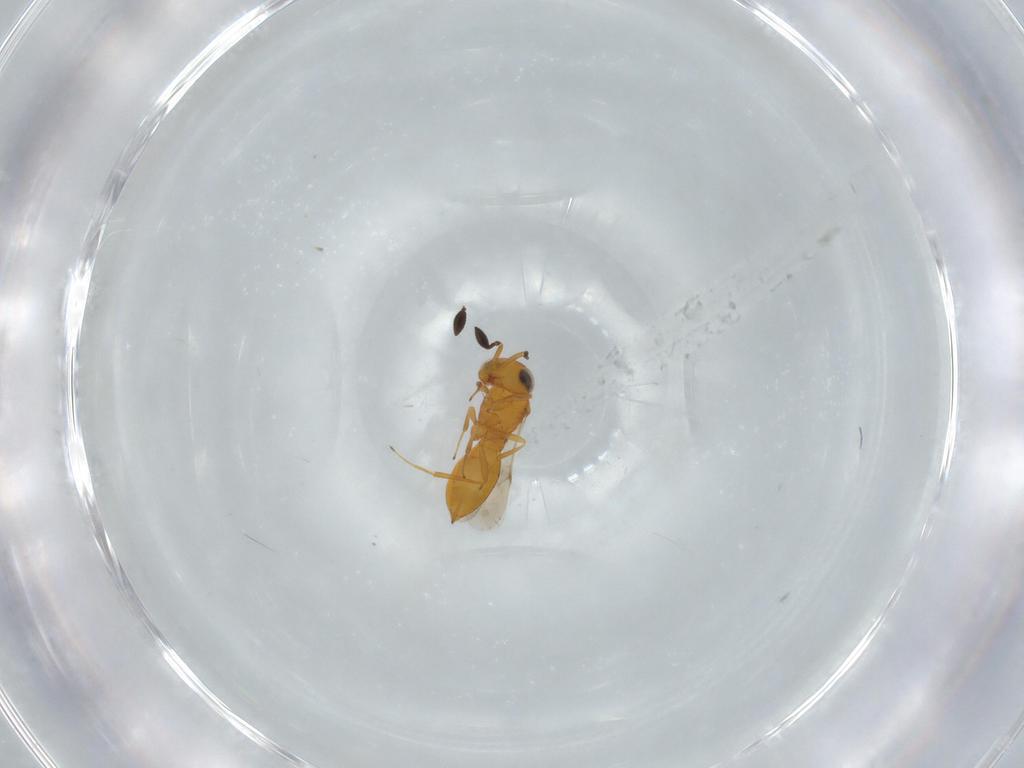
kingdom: Animalia
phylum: Arthropoda
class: Insecta
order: Hymenoptera
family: Scelionidae
